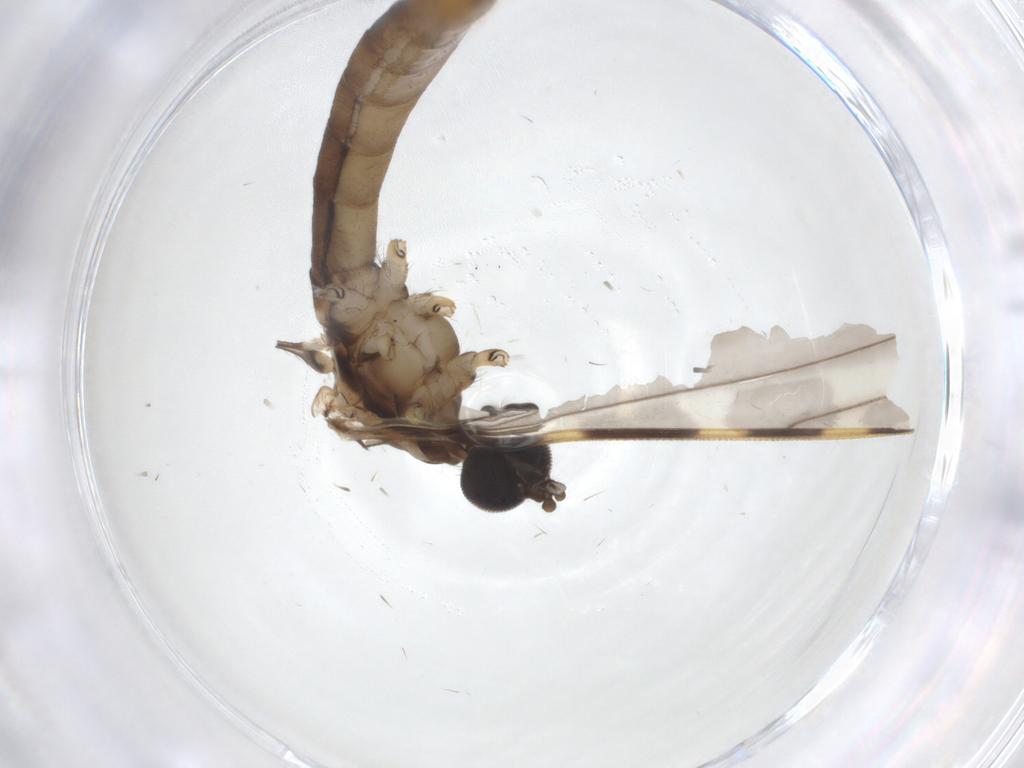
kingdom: Animalia
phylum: Arthropoda
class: Insecta
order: Diptera
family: Limoniidae
